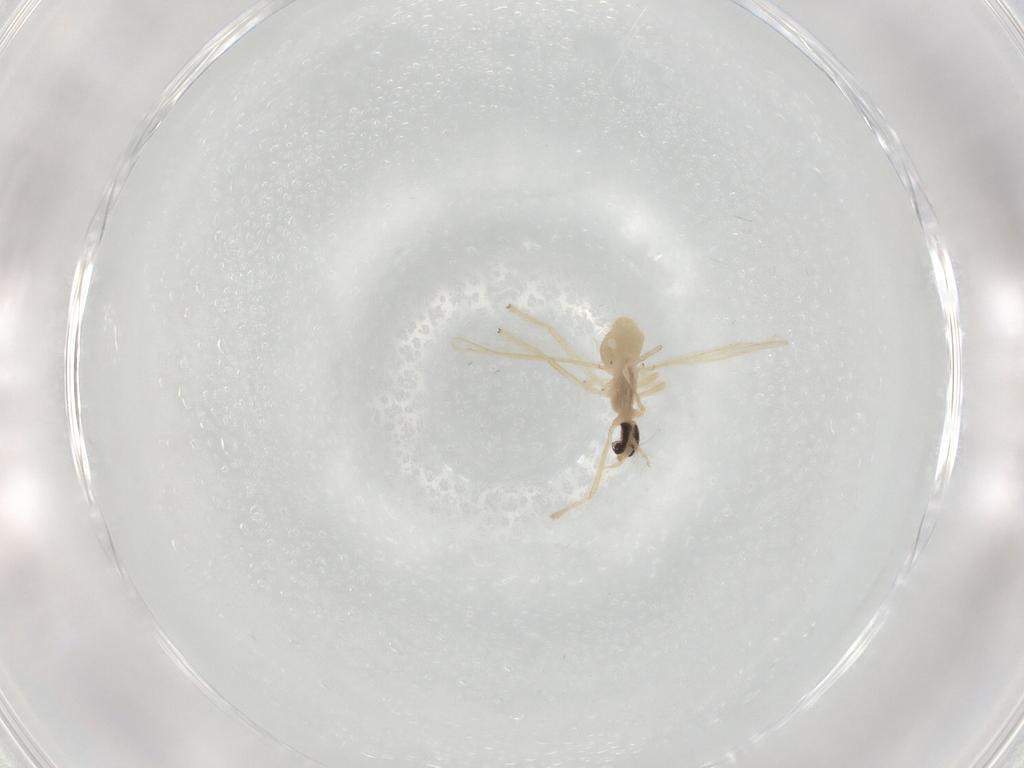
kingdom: Animalia
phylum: Arthropoda
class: Insecta
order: Diptera
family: Chironomidae
